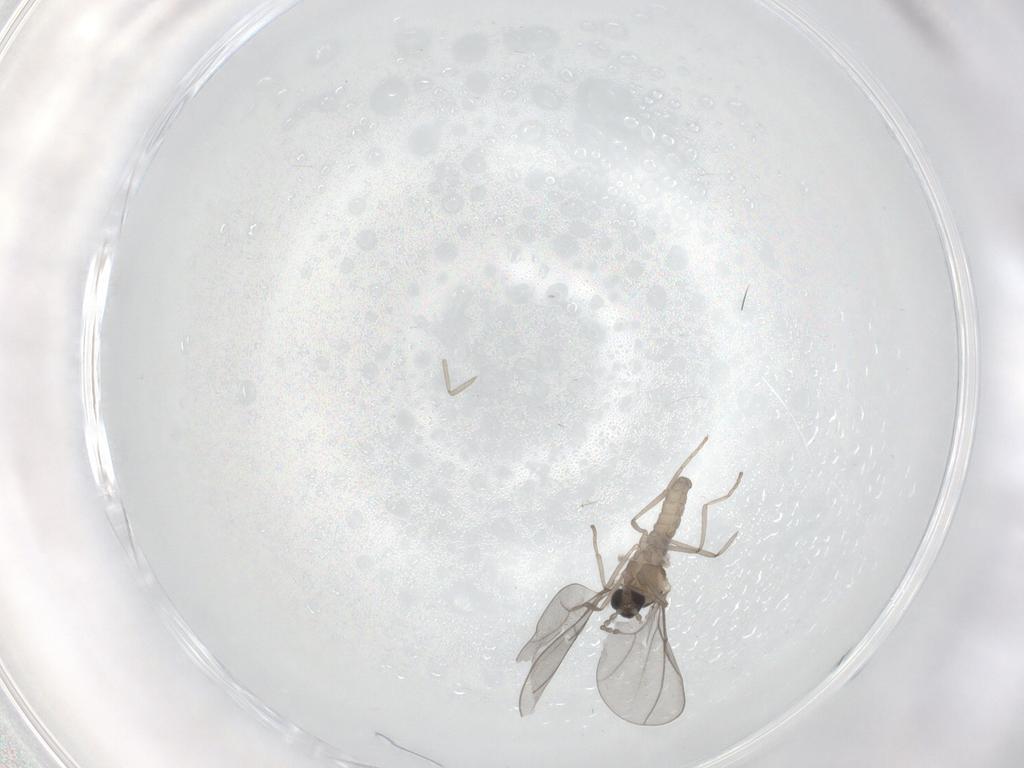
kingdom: Animalia
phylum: Arthropoda
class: Insecta
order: Diptera
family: Cecidomyiidae
